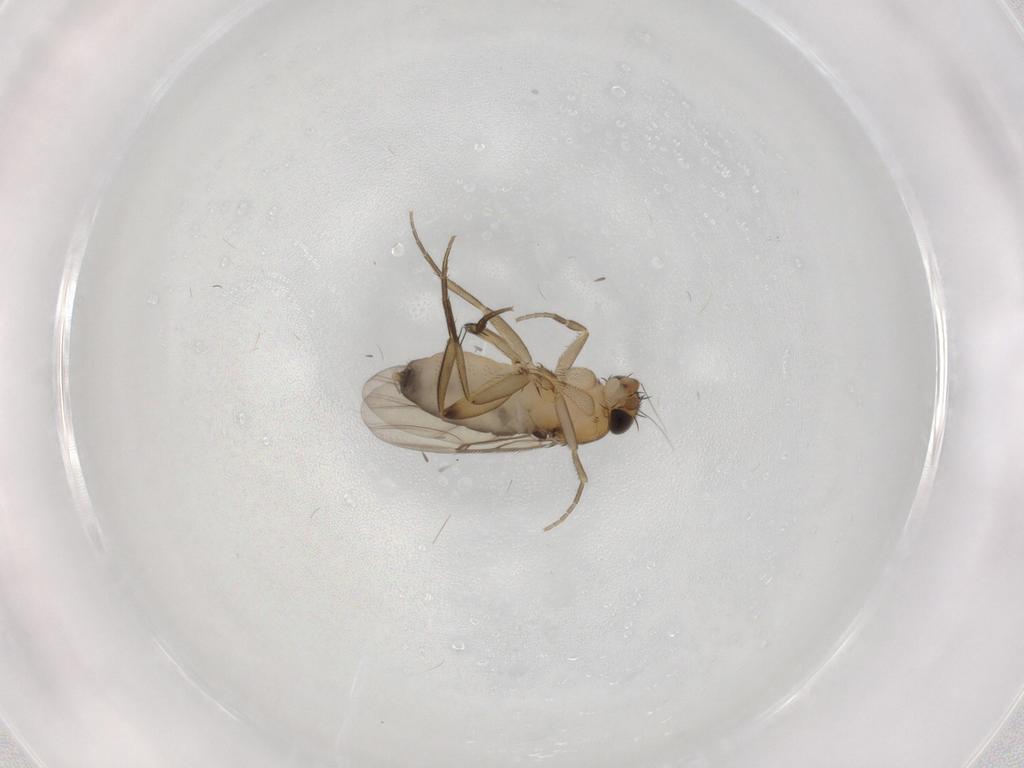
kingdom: Animalia
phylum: Arthropoda
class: Insecta
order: Diptera
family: Phoridae
